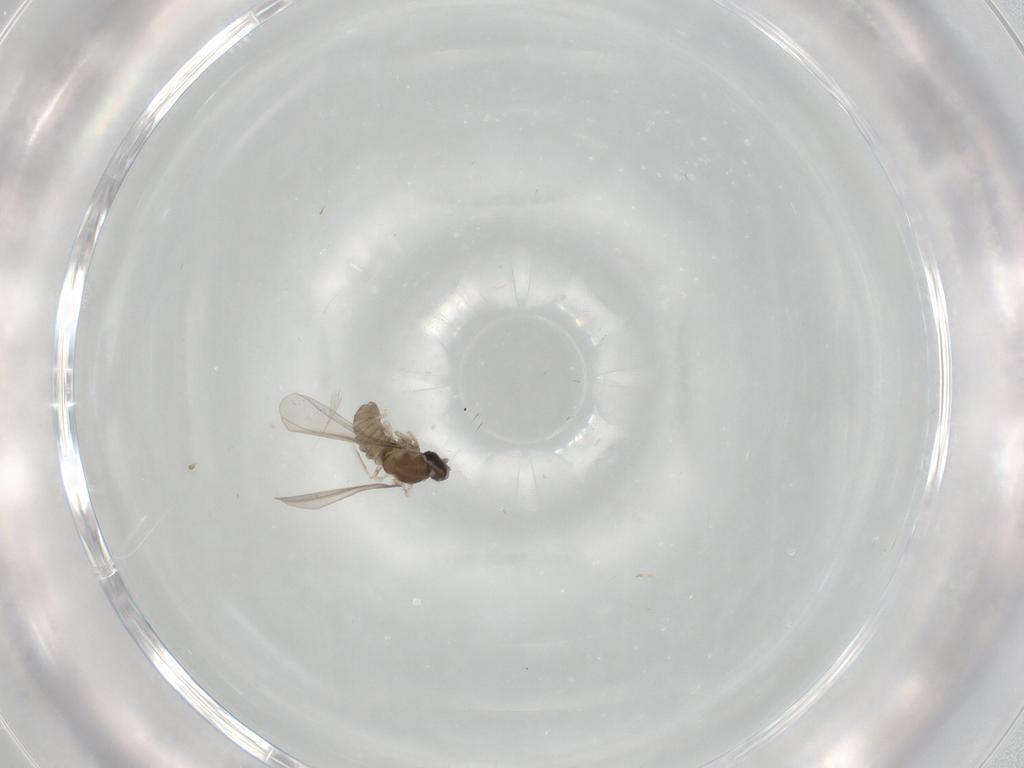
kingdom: Animalia
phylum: Arthropoda
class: Insecta
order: Diptera
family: Cecidomyiidae
